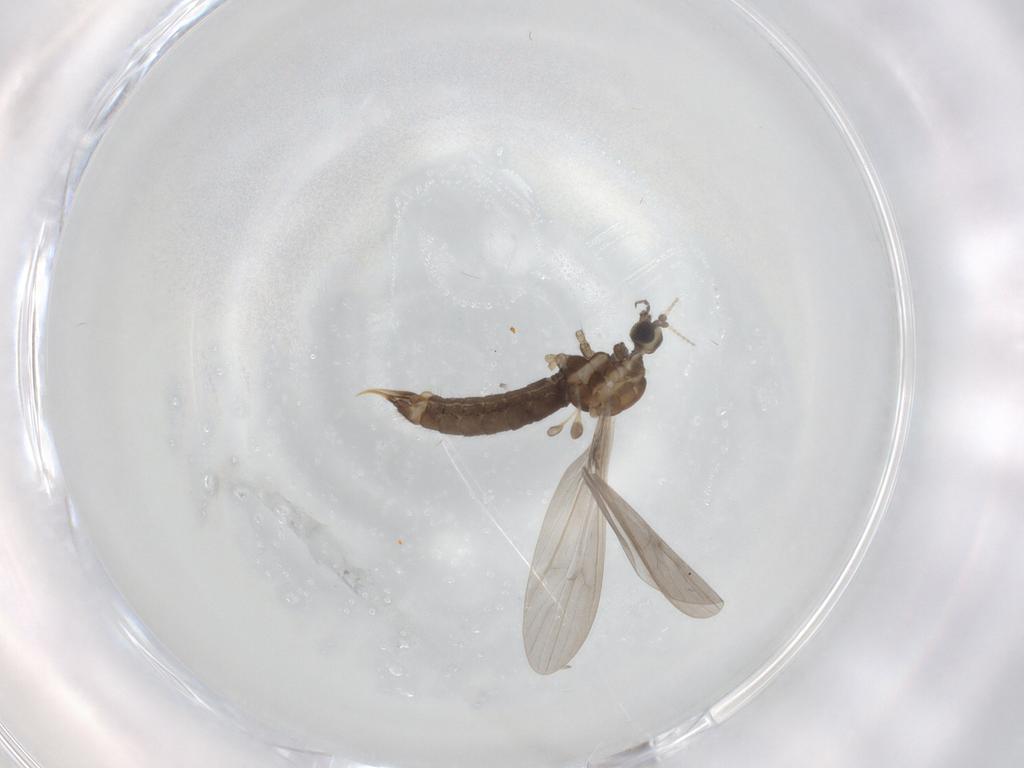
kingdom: Animalia
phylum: Arthropoda
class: Insecta
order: Diptera
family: Limoniidae
